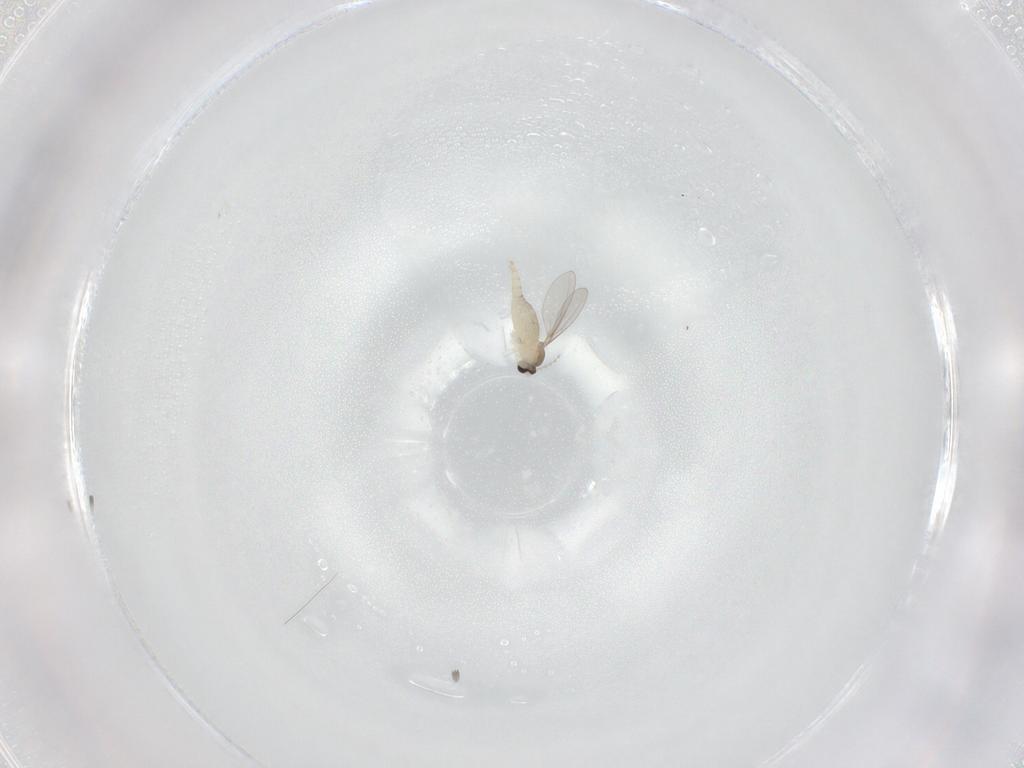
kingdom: Animalia
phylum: Arthropoda
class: Insecta
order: Diptera
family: Cecidomyiidae
